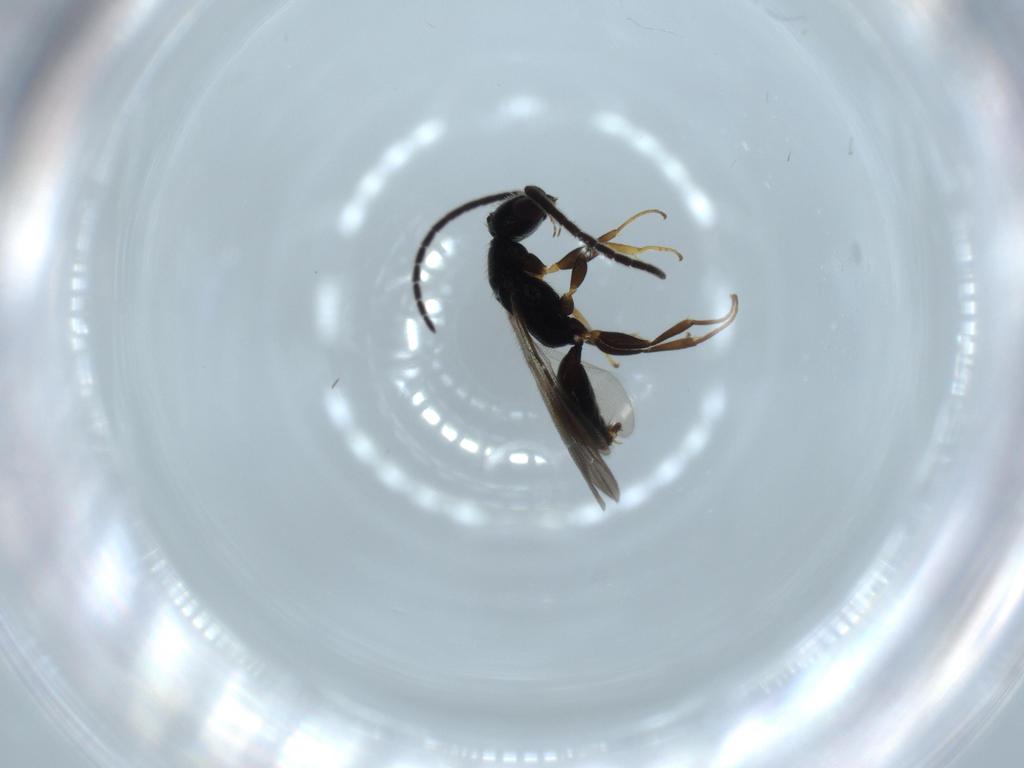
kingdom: Animalia
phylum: Arthropoda
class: Insecta
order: Hymenoptera
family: Bethylidae
